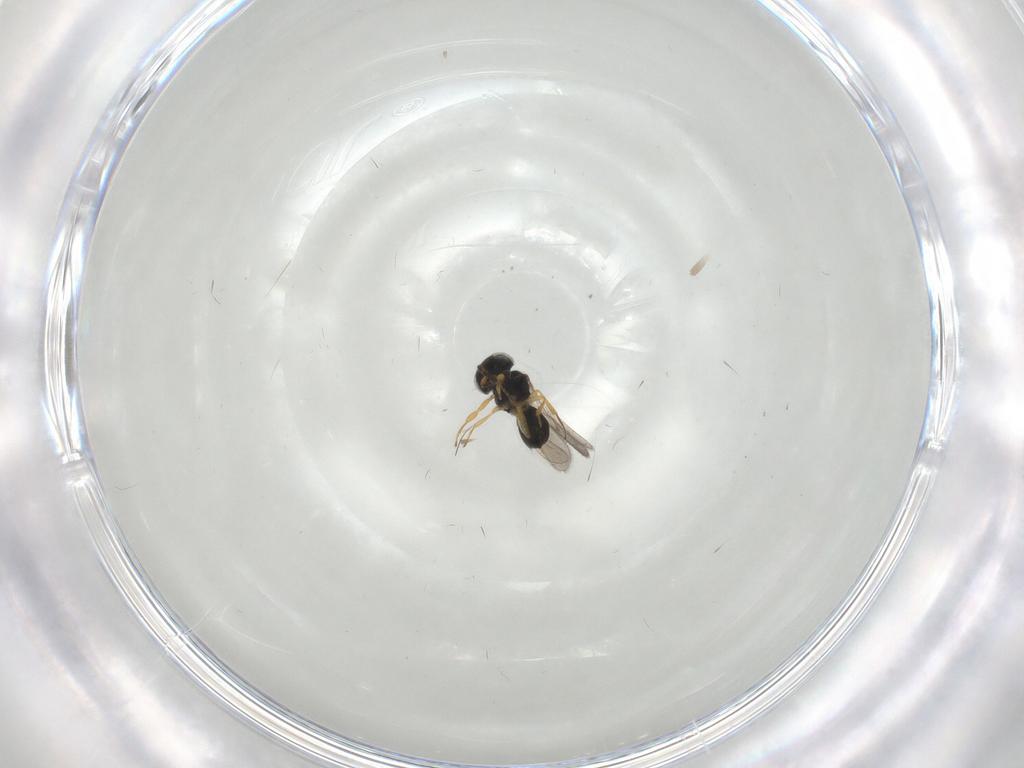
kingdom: Animalia
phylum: Arthropoda
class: Insecta
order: Hymenoptera
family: Scelionidae
